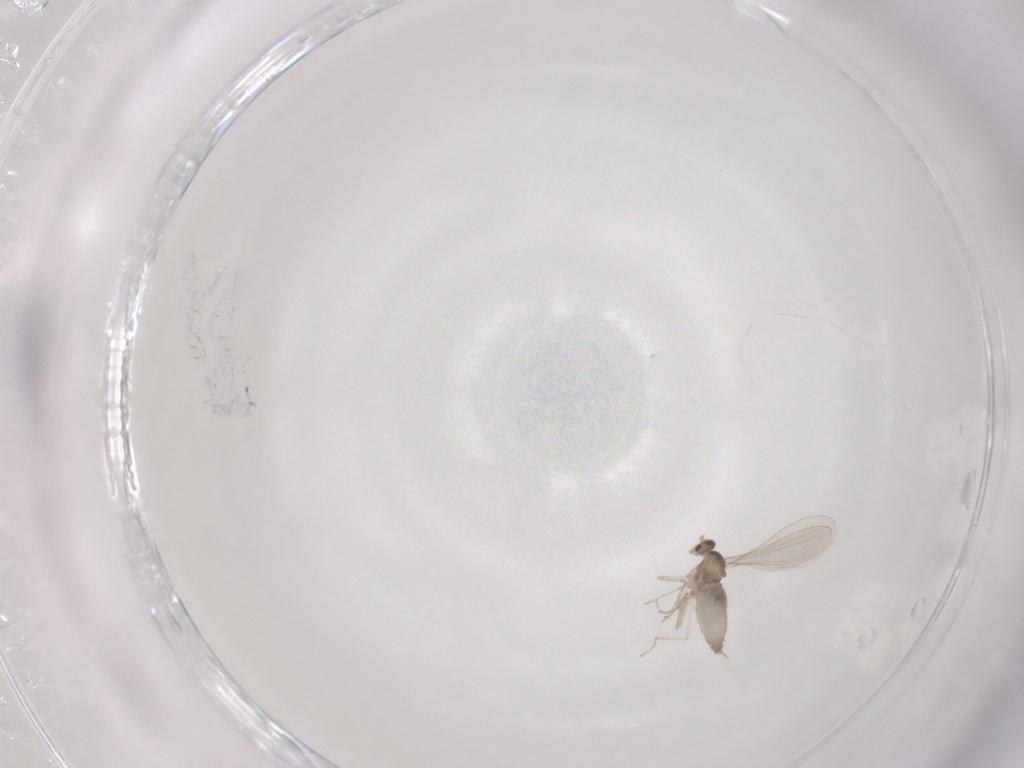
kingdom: Animalia
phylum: Arthropoda
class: Insecta
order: Diptera
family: Cecidomyiidae
